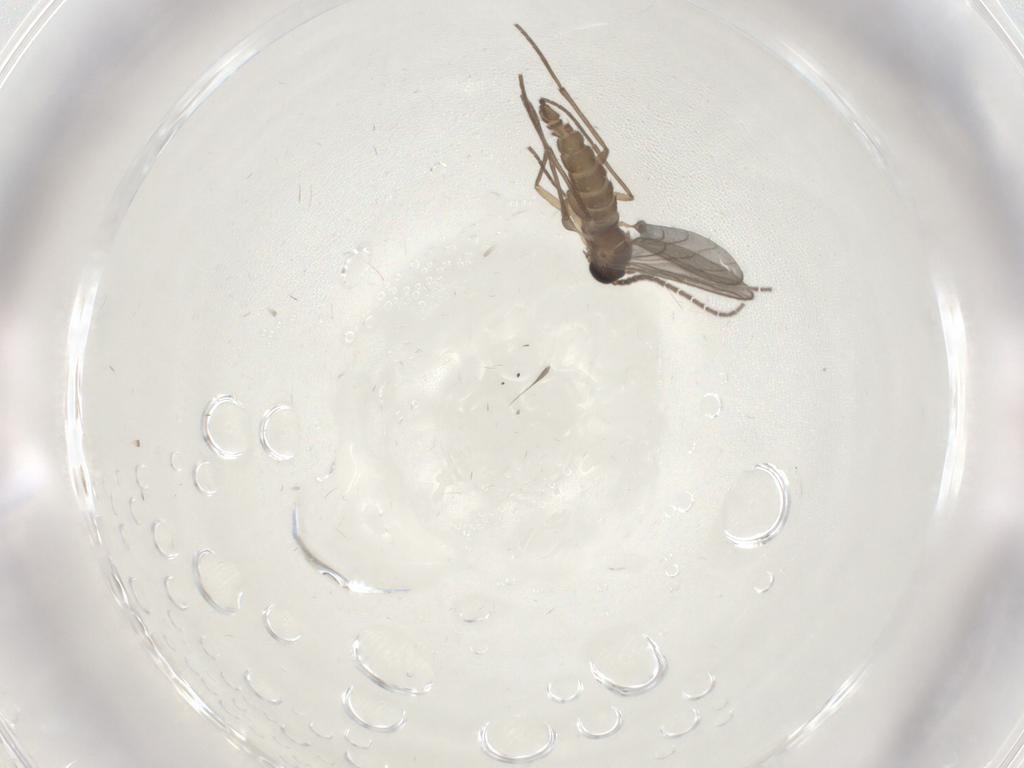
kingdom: Animalia
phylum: Arthropoda
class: Insecta
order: Diptera
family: Sciaridae
